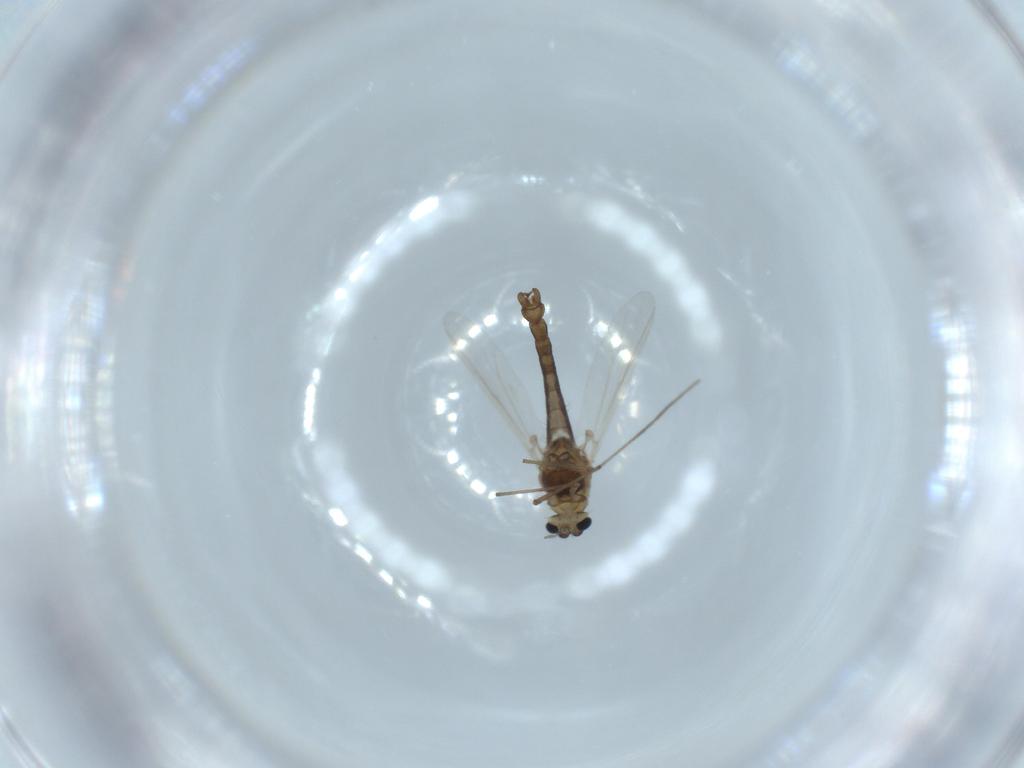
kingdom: Animalia
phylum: Arthropoda
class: Insecta
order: Diptera
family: Chironomidae
